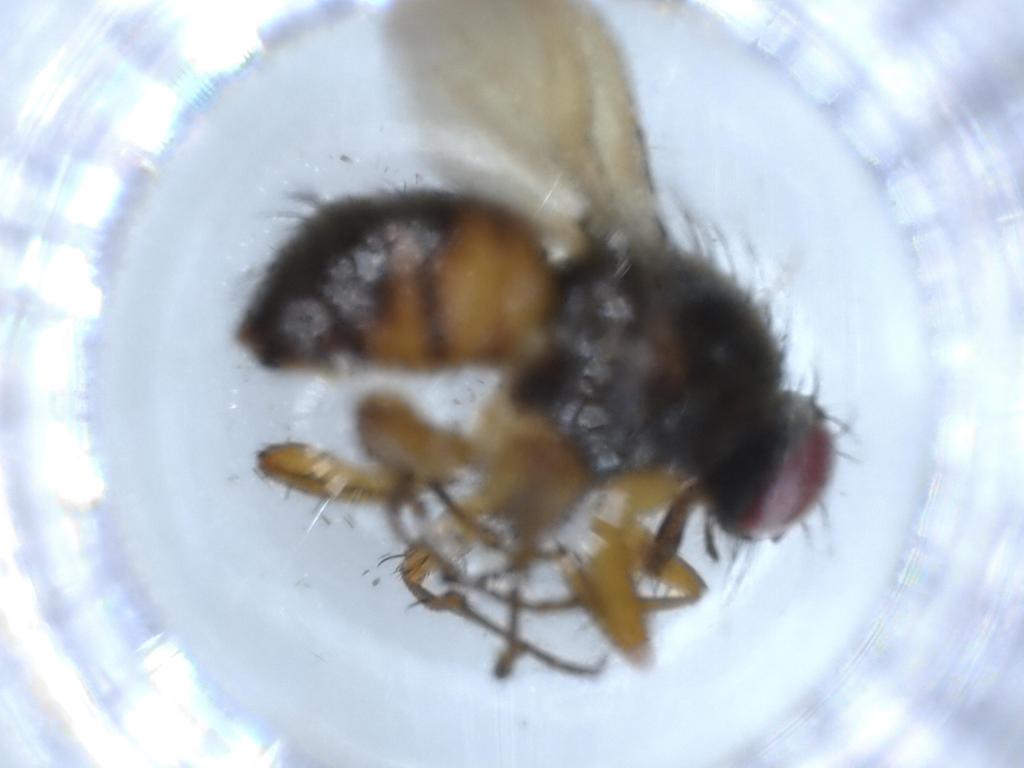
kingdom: Animalia
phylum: Arthropoda
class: Insecta
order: Diptera
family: Muscidae
